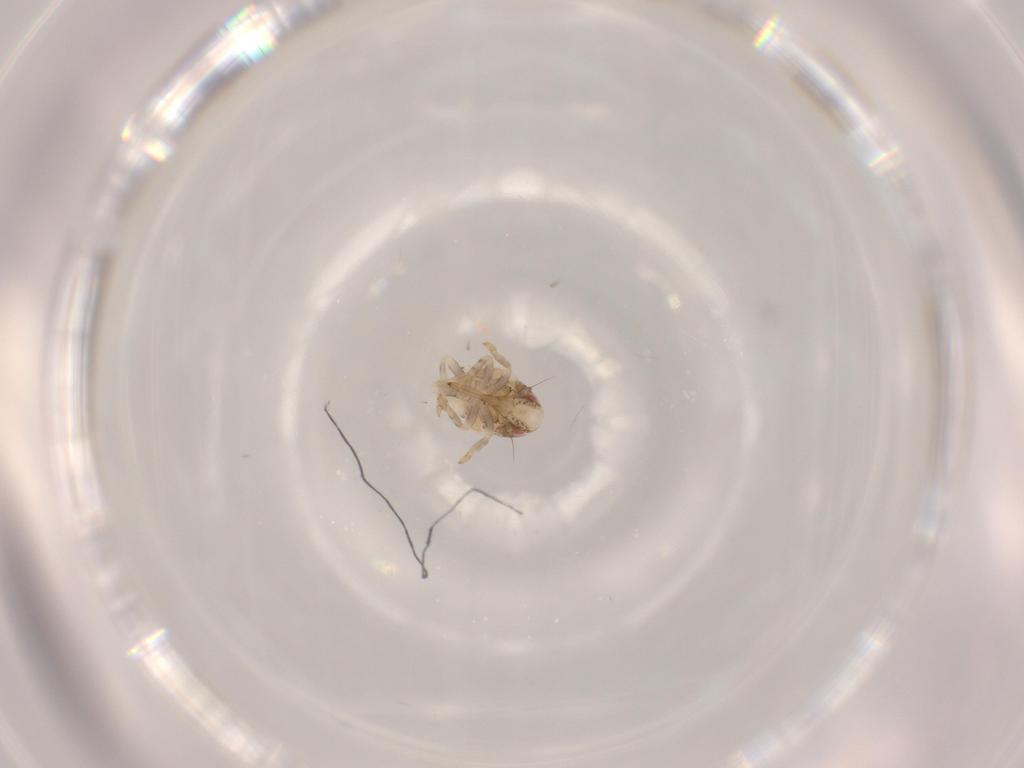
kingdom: Animalia
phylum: Arthropoda
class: Insecta
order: Hemiptera
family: Acanaloniidae
